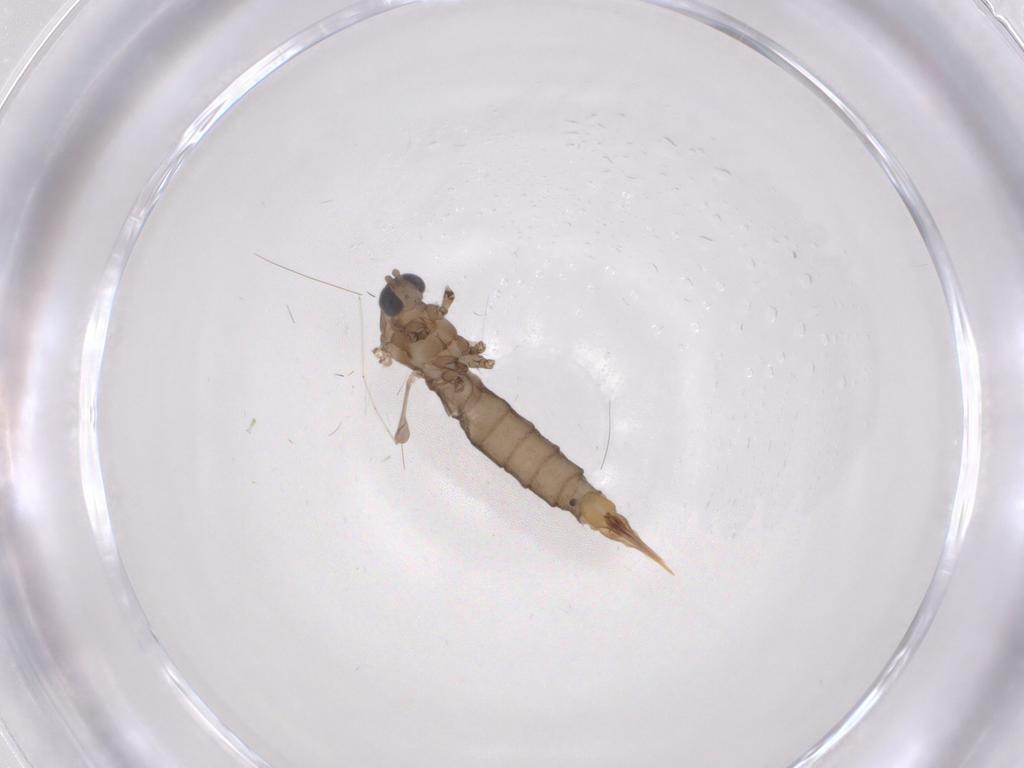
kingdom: Animalia
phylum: Arthropoda
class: Insecta
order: Diptera
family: Limoniidae
